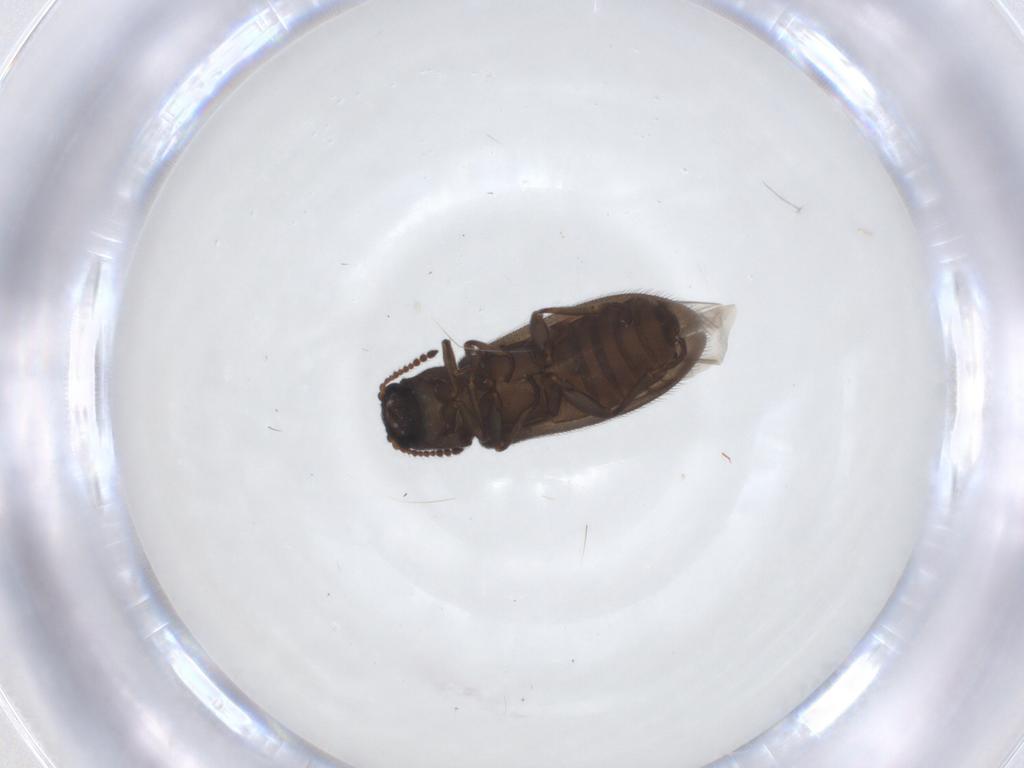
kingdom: Animalia
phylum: Arthropoda
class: Insecta
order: Coleoptera
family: Melyridae
